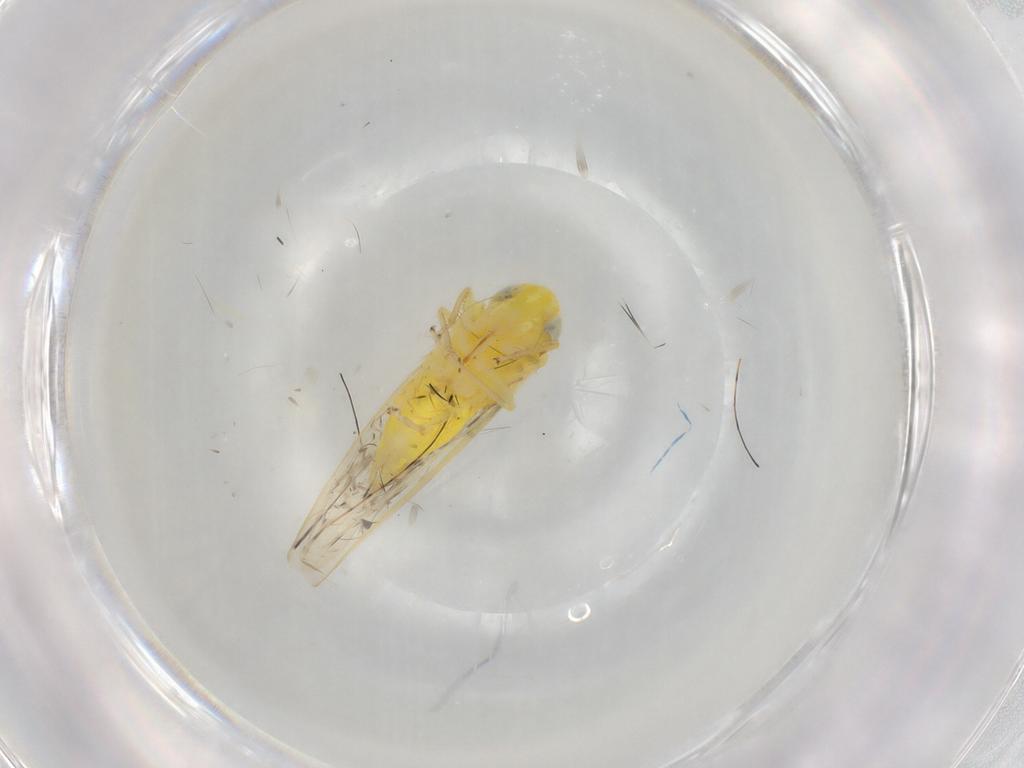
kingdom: Animalia
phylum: Arthropoda
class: Insecta
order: Hemiptera
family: Cicadellidae
